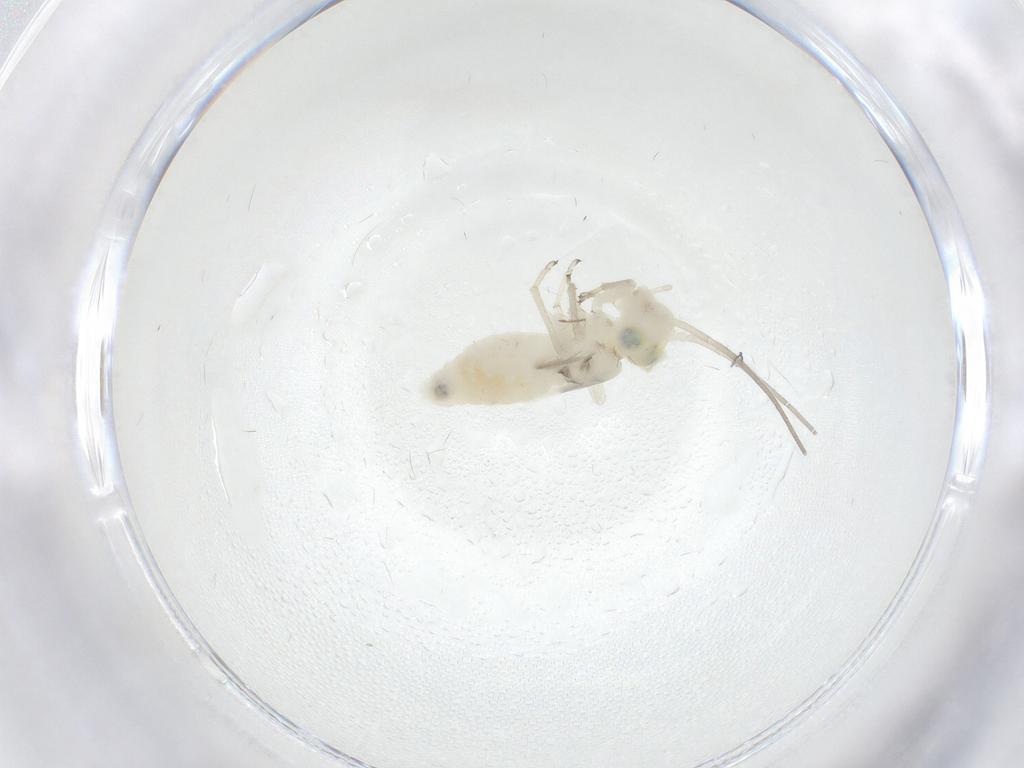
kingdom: Animalia
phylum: Arthropoda
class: Insecta
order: Psocodea
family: Caeciliusidae
